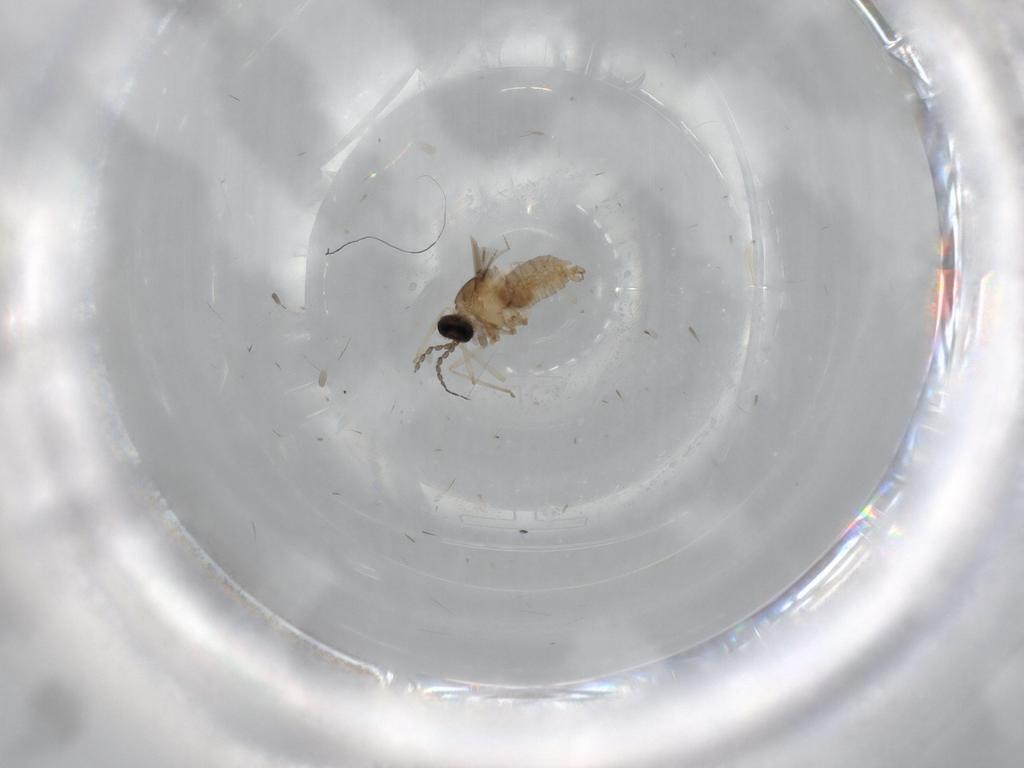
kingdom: Animalia
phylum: Arthropoda
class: Insecta
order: Diptera
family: Cecidomyiidae
